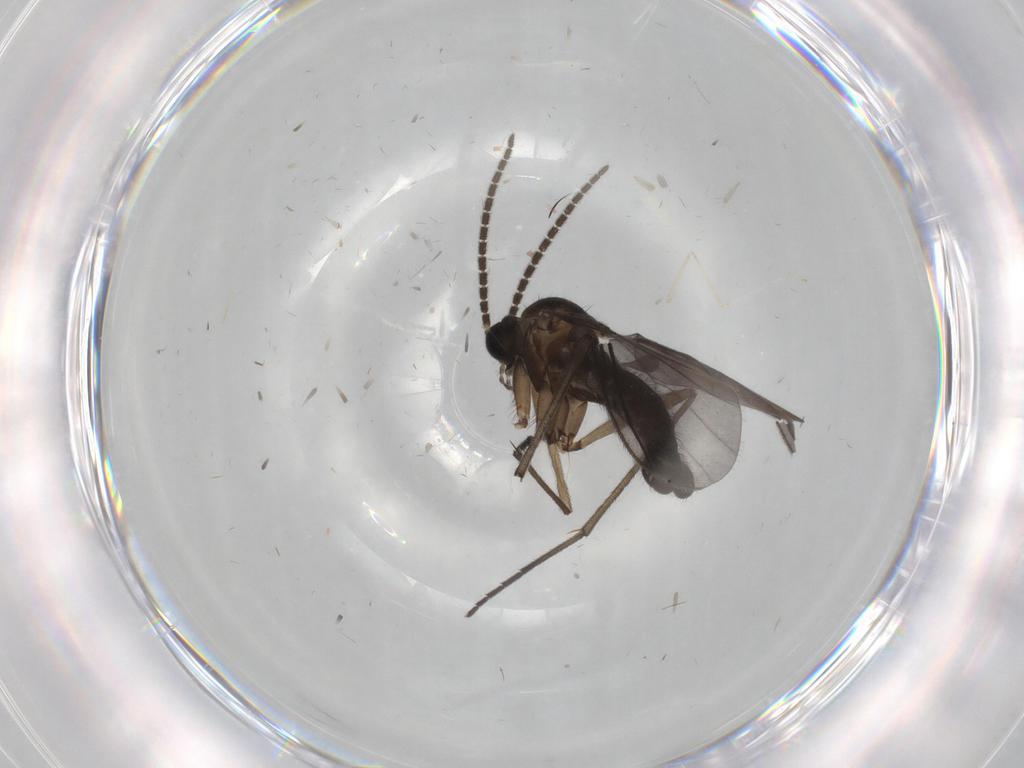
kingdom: Animalia
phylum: Arthropoda
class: Insecta
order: Diptera
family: Sciaridae
